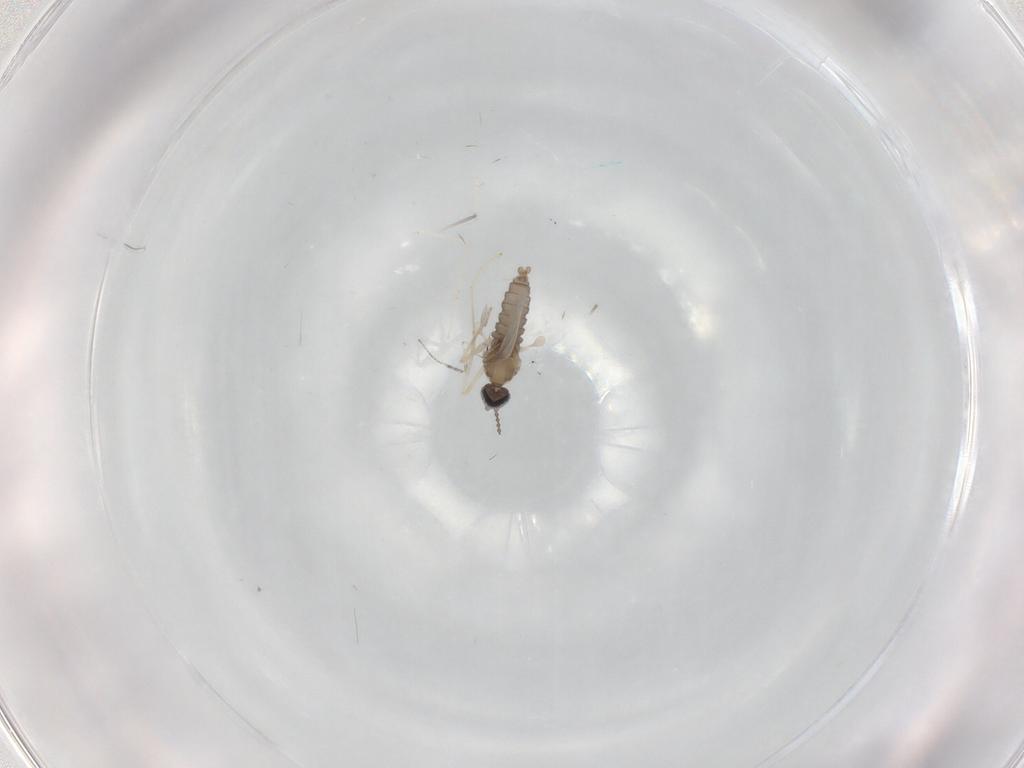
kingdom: Animalia
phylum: Arthropoda
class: Insecta
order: Diptera
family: Cecidomyiidae
